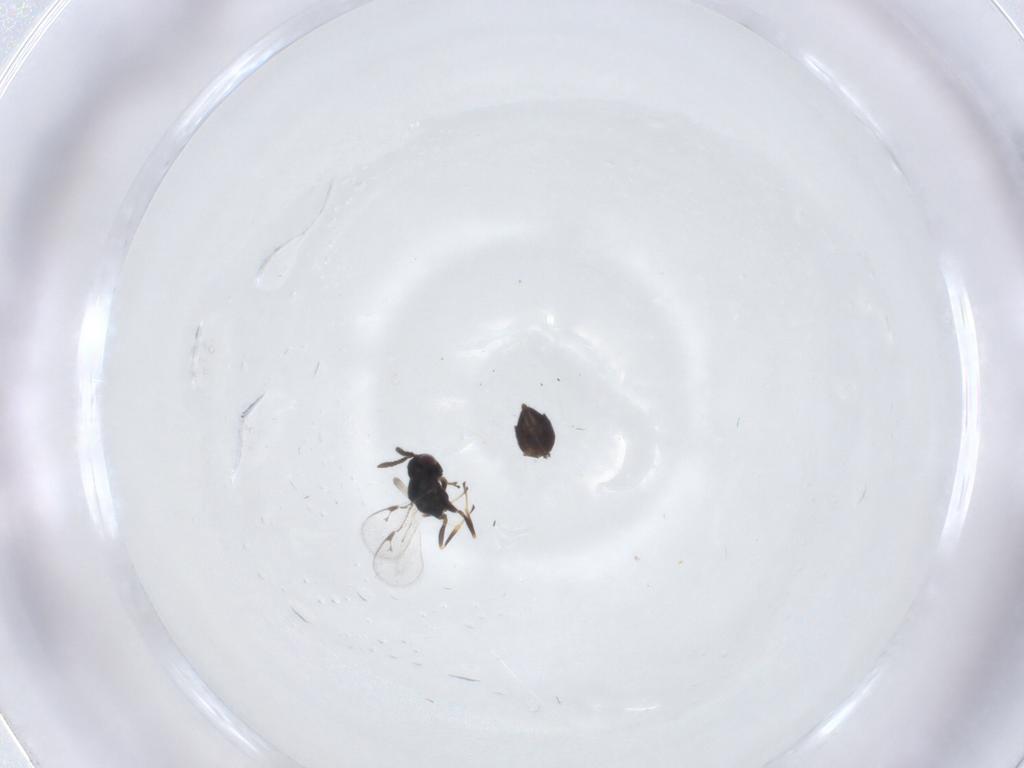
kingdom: Animalia
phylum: Arthropoda
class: Insecta
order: Hymenoptera
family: Pteromalidae
